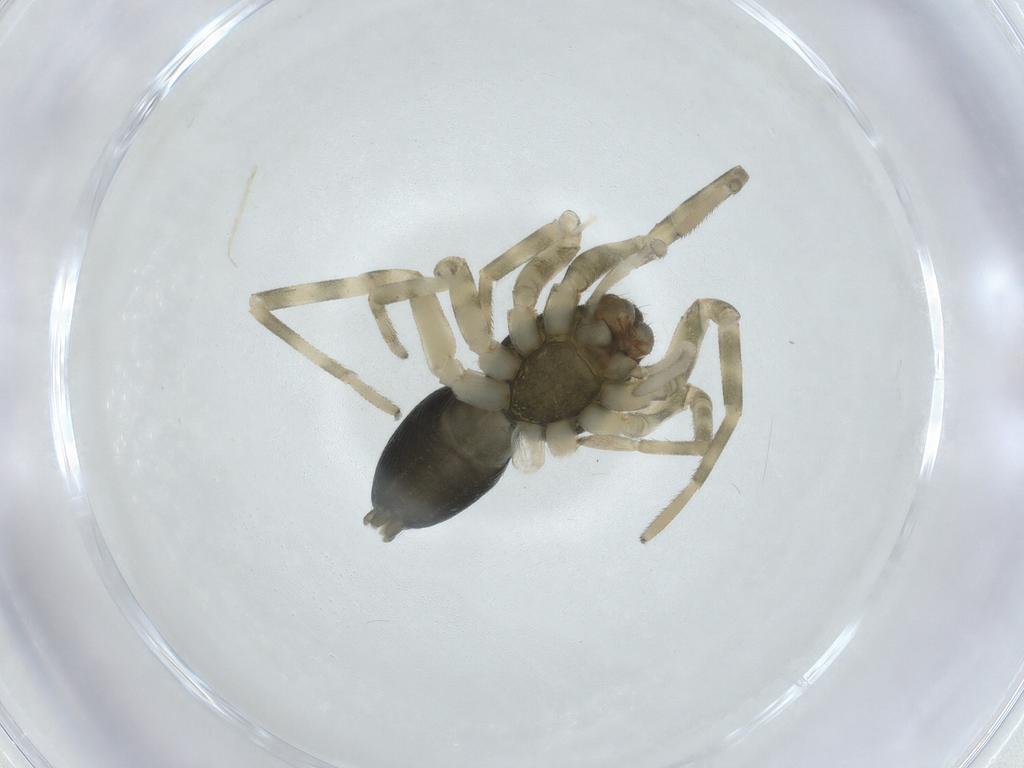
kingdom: Animalia
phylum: Arthropoda
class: Arachnida
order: Araneae
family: Trachelidae
